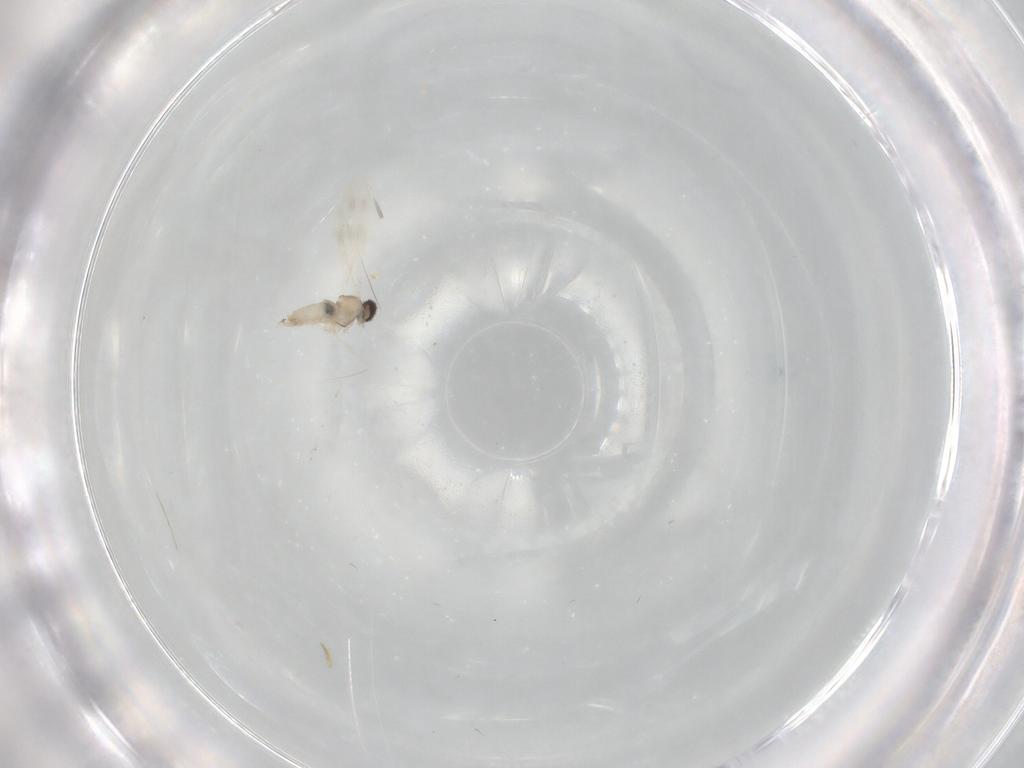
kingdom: Animalia
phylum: Arthropoda
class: Insecta
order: Diptera
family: Cecidomyiidae
